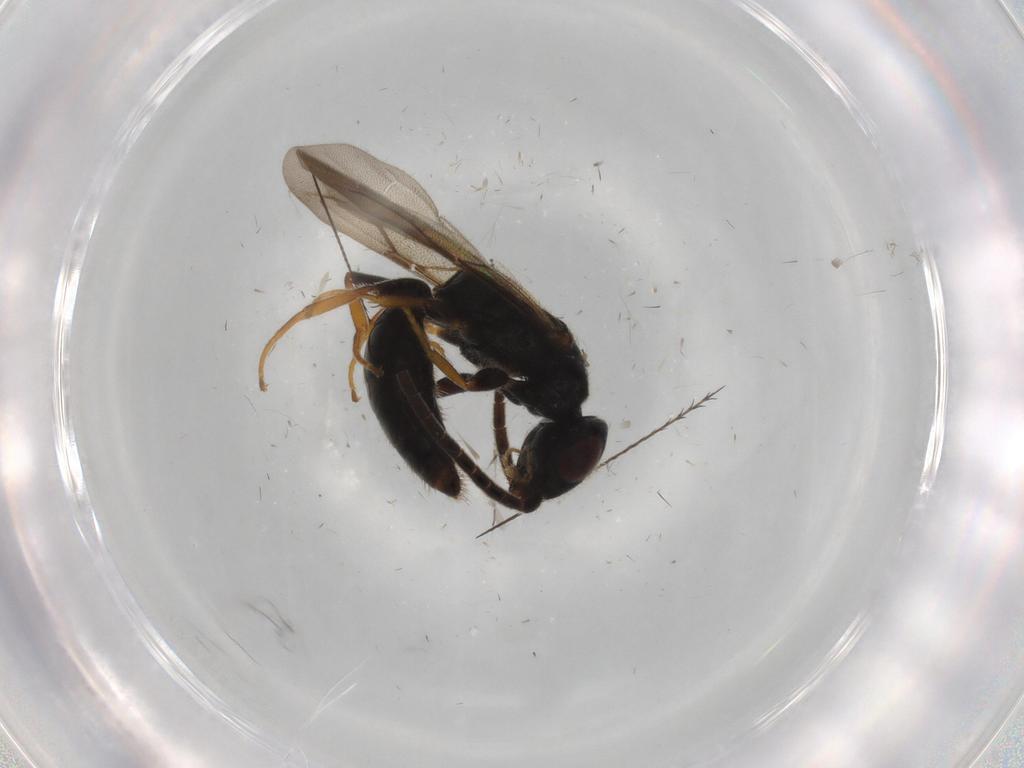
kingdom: Animalia
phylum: Arthropoda
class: Insecta
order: Hymenoptera
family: Bethylidae
